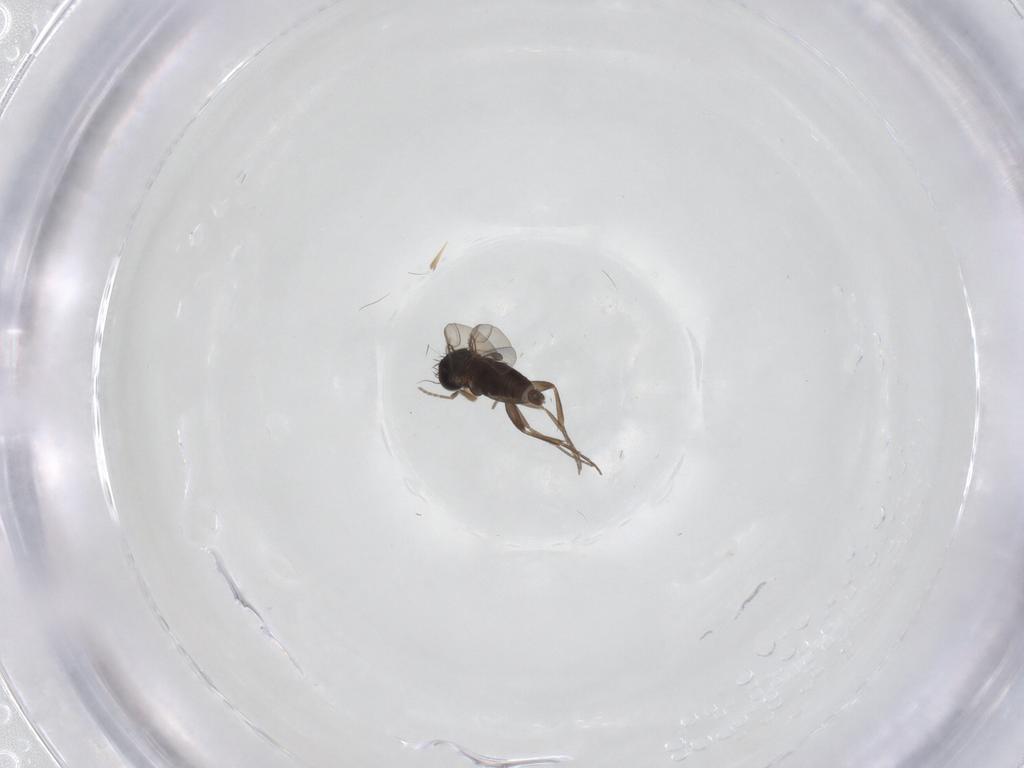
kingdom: Animalia
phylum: Arthropoda
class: Insecta
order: Diptera
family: Phoridae
